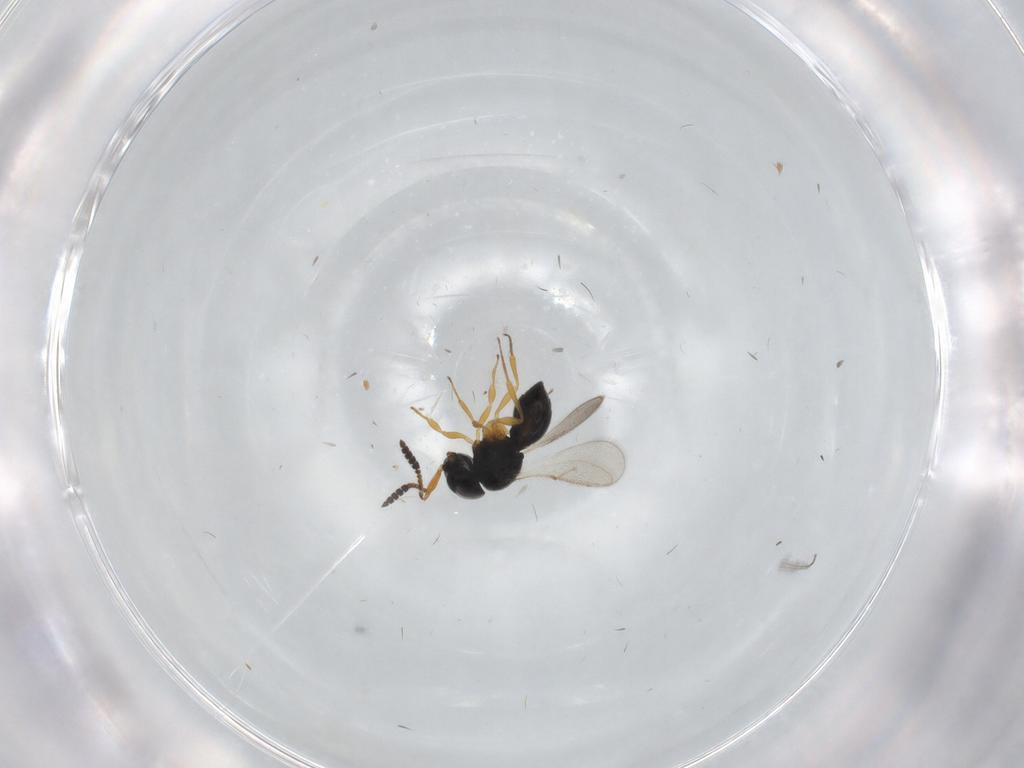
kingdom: Animalia
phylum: Arthropoda
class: Insecta
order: Hymenoptera
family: Scelionidae
